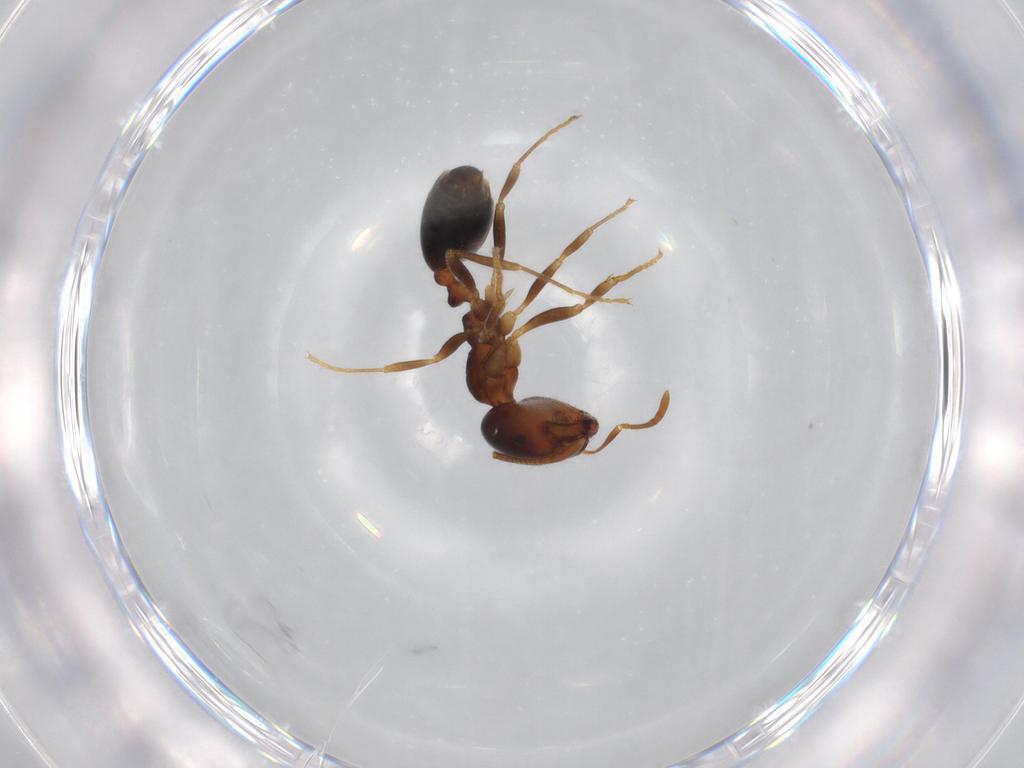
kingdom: Animalia
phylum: Arthropoda
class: Insecta
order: Hymenoptera
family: Formicidae
